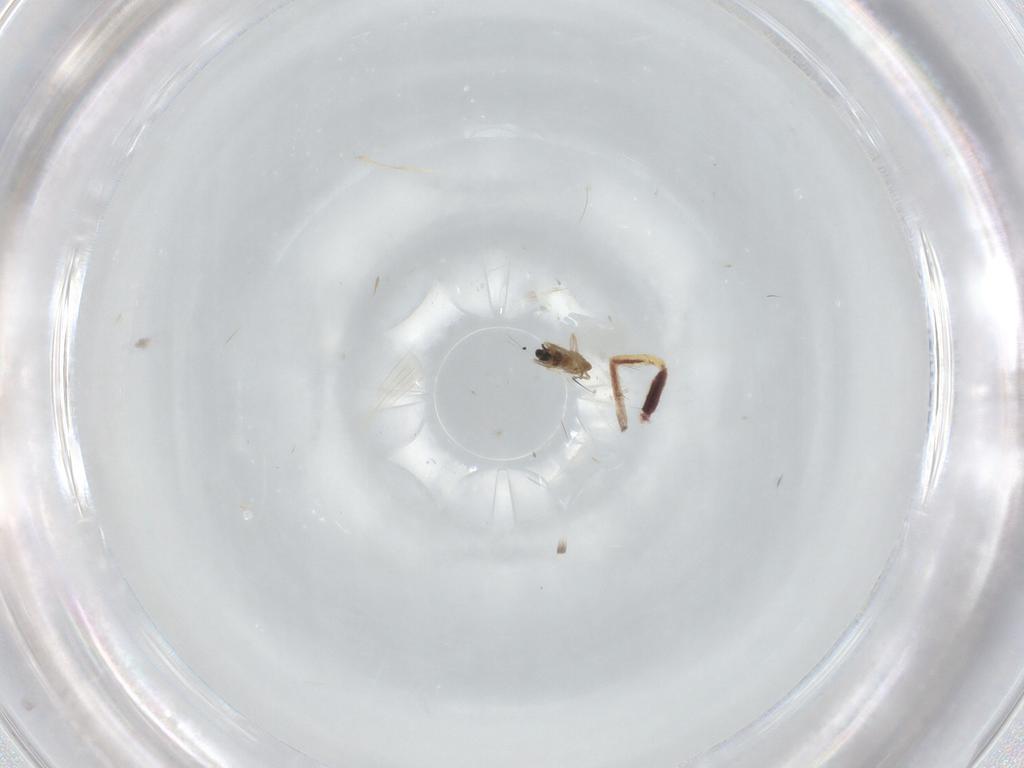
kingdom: Animalia
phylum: Arthropoda
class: Insecta
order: Diptera
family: Cecidomyiidae
